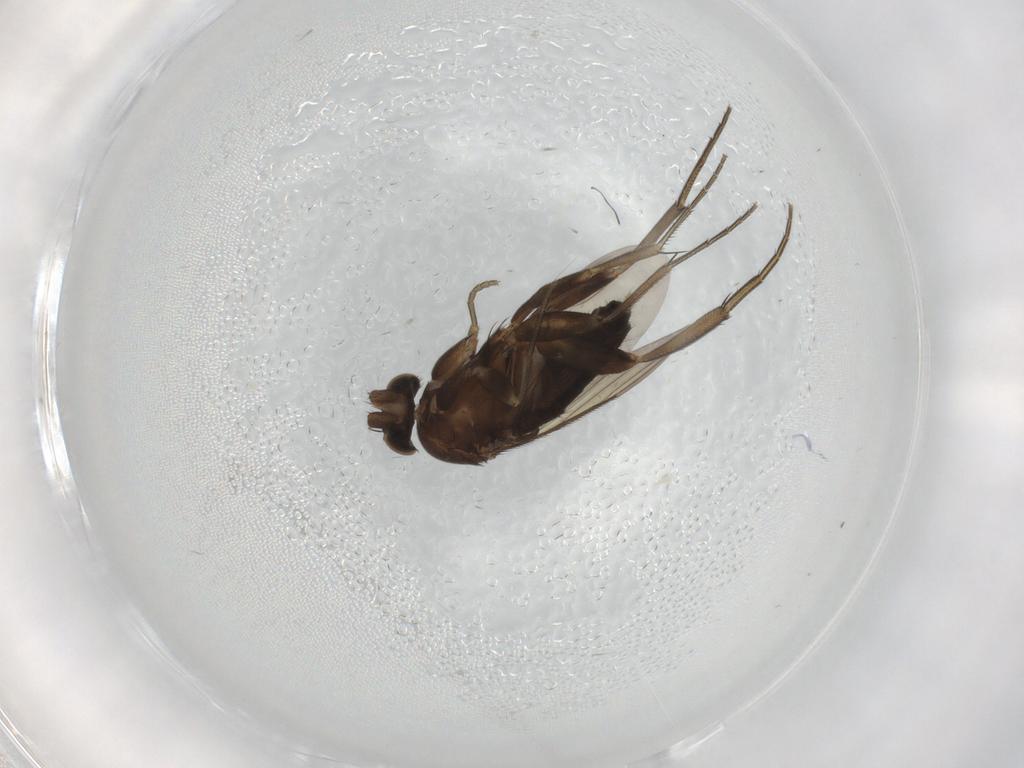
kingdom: Animalia
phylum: Arthropoda
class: Insecta
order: Diptera
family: Phoridae
